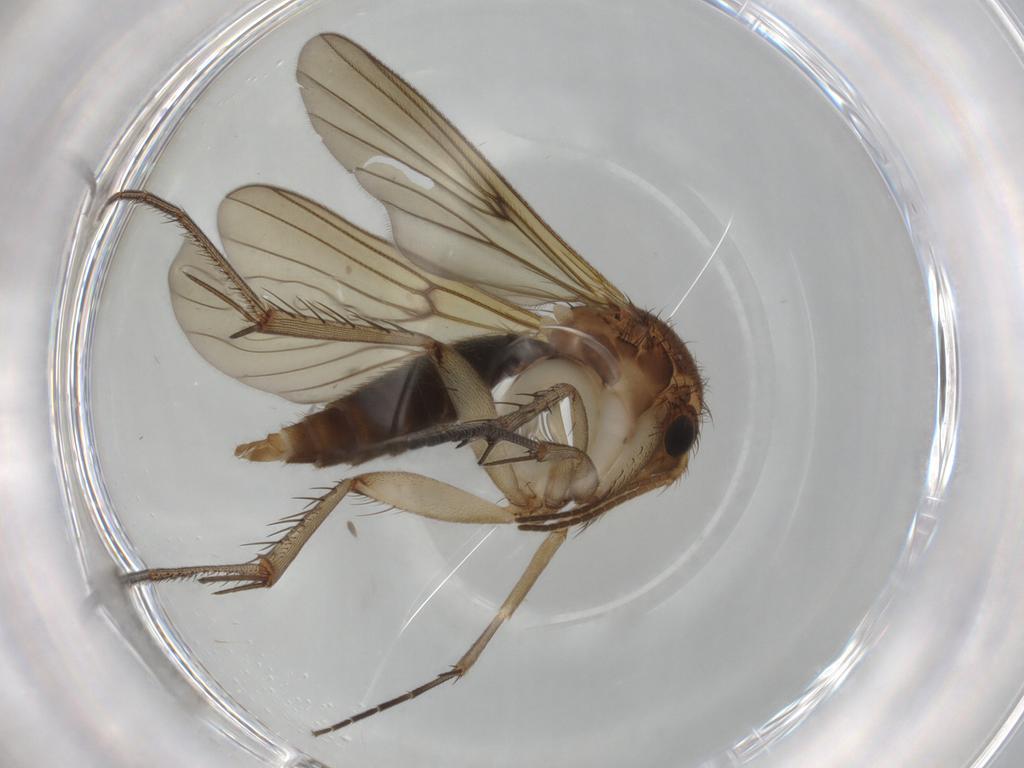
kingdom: Animalia
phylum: Arthropoda
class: Insecta
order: Diptera
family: Mycetophilidae
